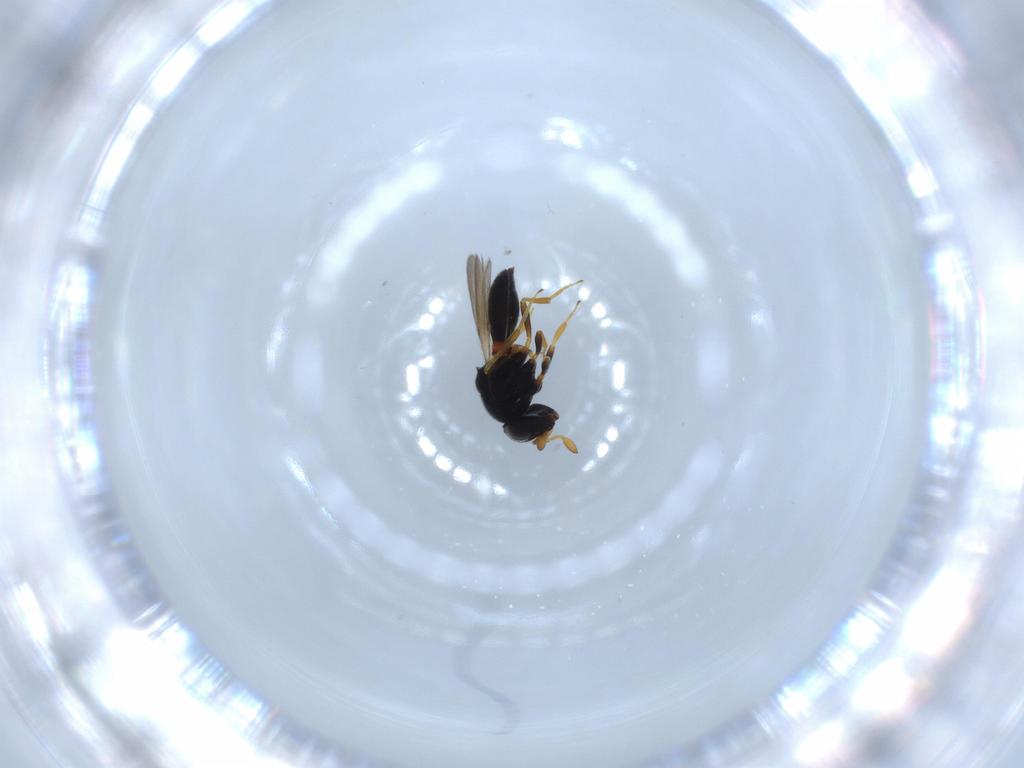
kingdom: Animalia
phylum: Arthropoda
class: Insecta
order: Hymenoptera
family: Scelionidae
